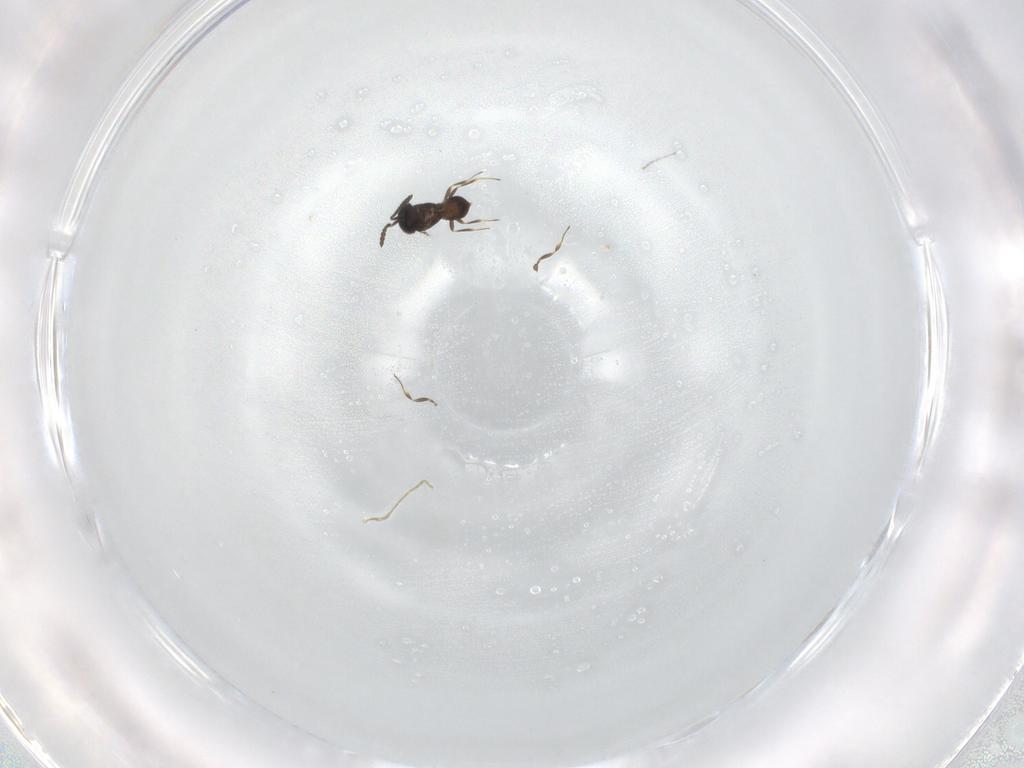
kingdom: Animalia
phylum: Arthropoda
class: Insecta
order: Hymenoptera
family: Scelionidae
